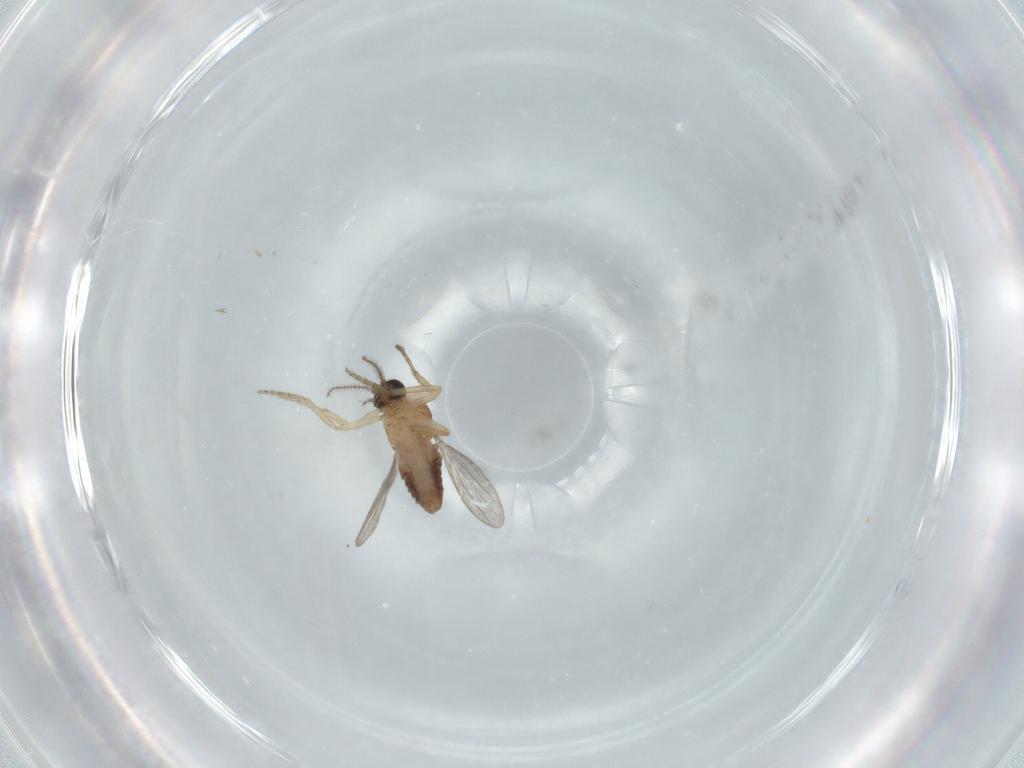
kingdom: Animalia
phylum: Arthropoda
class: Insecta
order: Diptera
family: Ceratopogonidae
